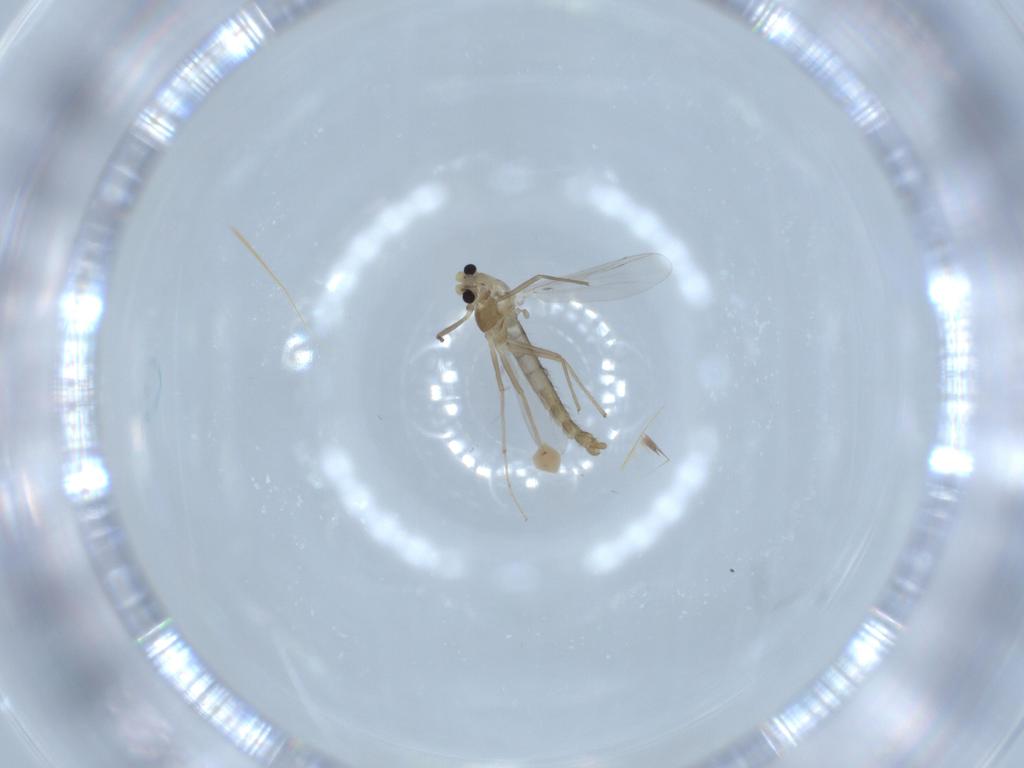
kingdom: Animalia
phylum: Arthropoda
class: Insecta
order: Diptera
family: Chironomidae
